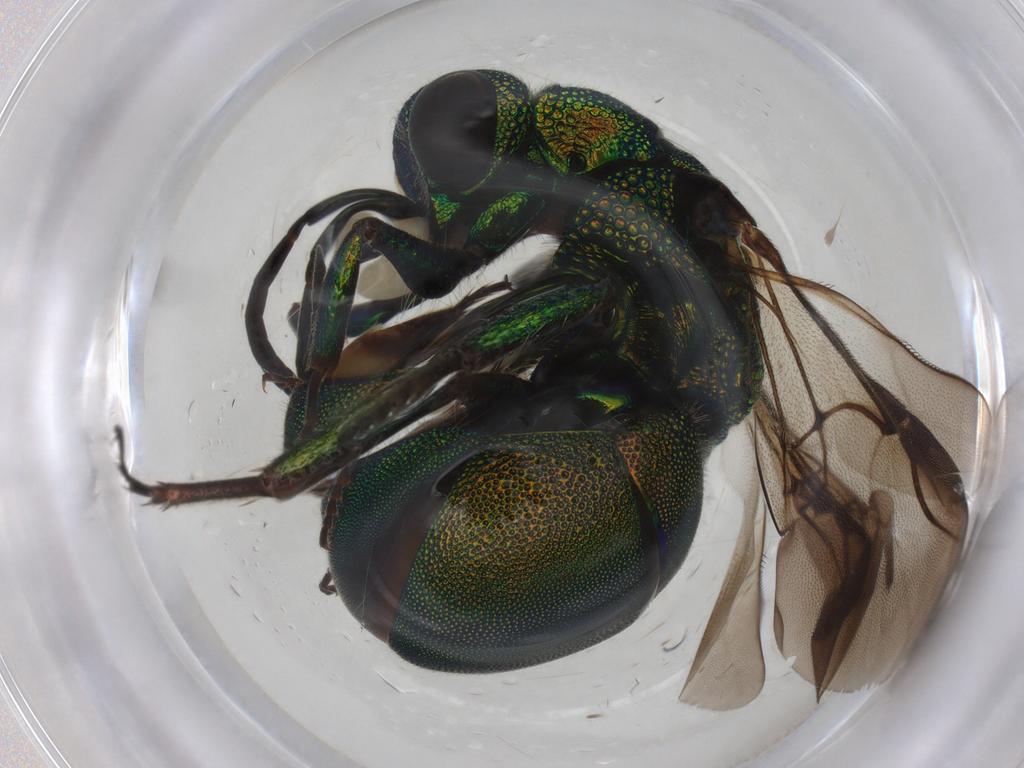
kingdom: Animalia
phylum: Arthropoda
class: Insecta
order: Hymenoptera
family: Chrysididae
